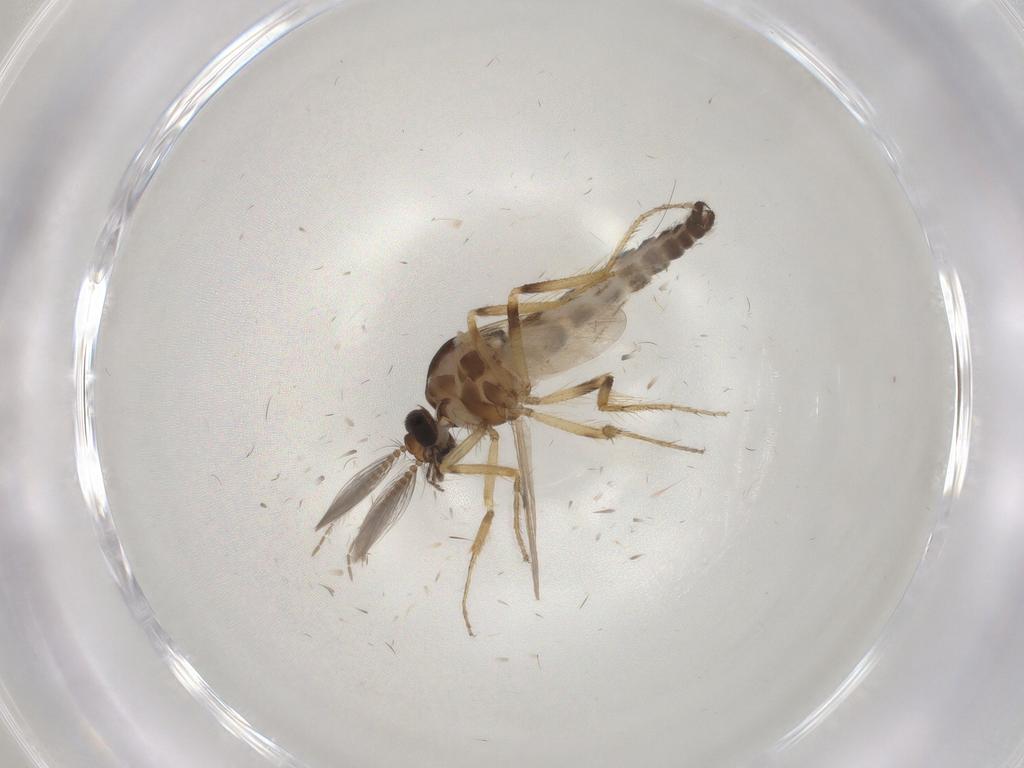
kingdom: Animalia
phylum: Arthropoda
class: Insecta
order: Diptera
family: Ceratopogonidae
